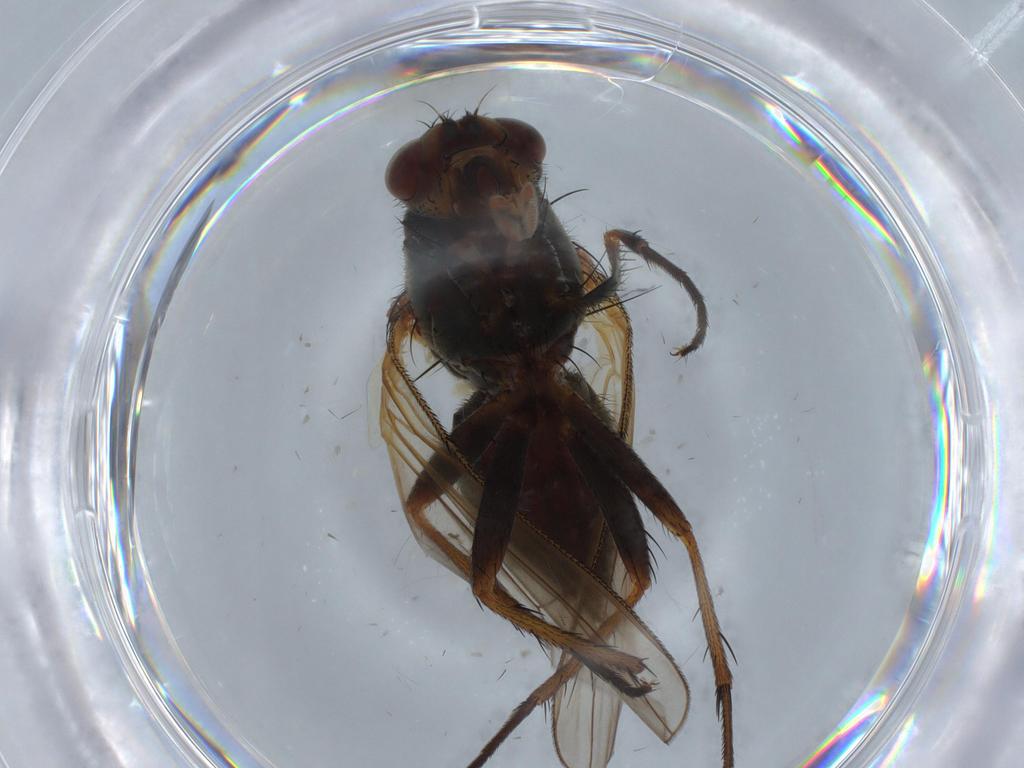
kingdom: Animalia
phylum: Arthropoda
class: Insecta
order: Diptera
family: Anthomyiidae
